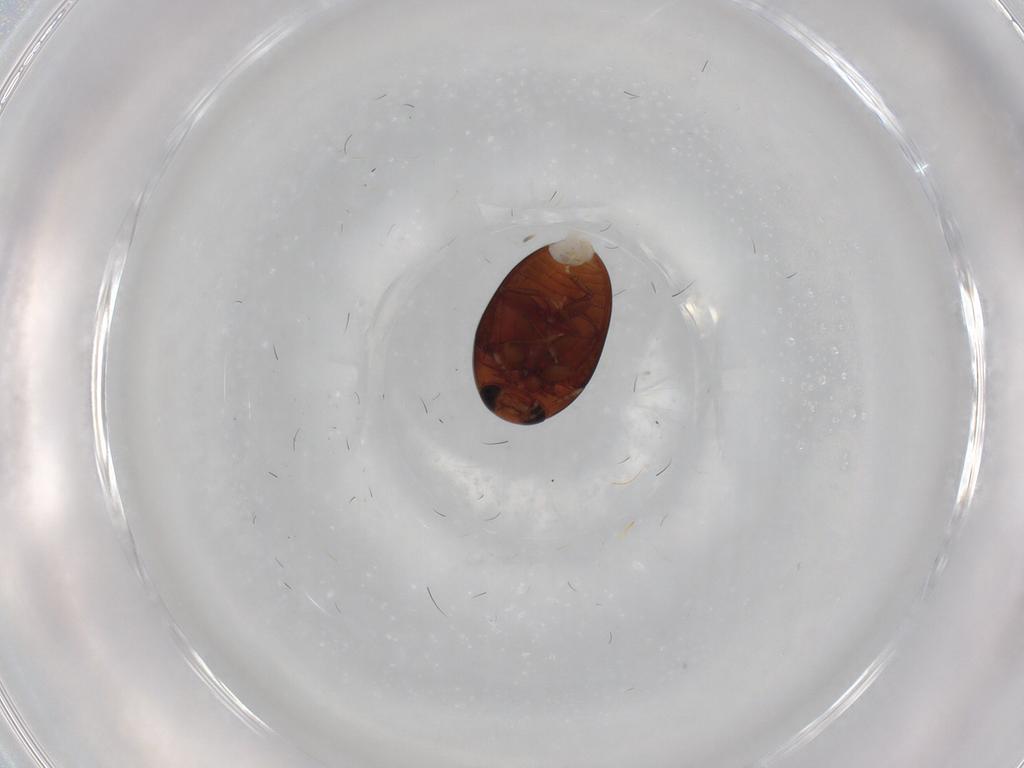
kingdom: Animalia
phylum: Arthropoda
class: Insecta
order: Coleoptera
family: Phalacridae
